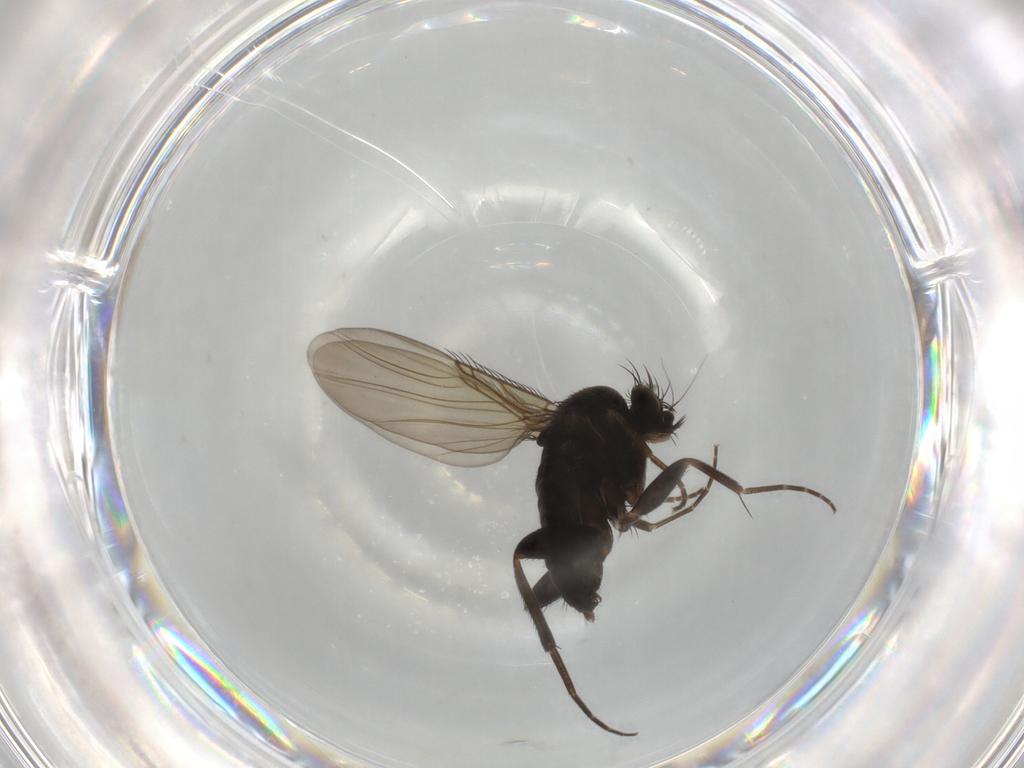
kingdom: Animalia
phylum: Arthropoda
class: Insecta
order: Diptera
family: Phoridae
